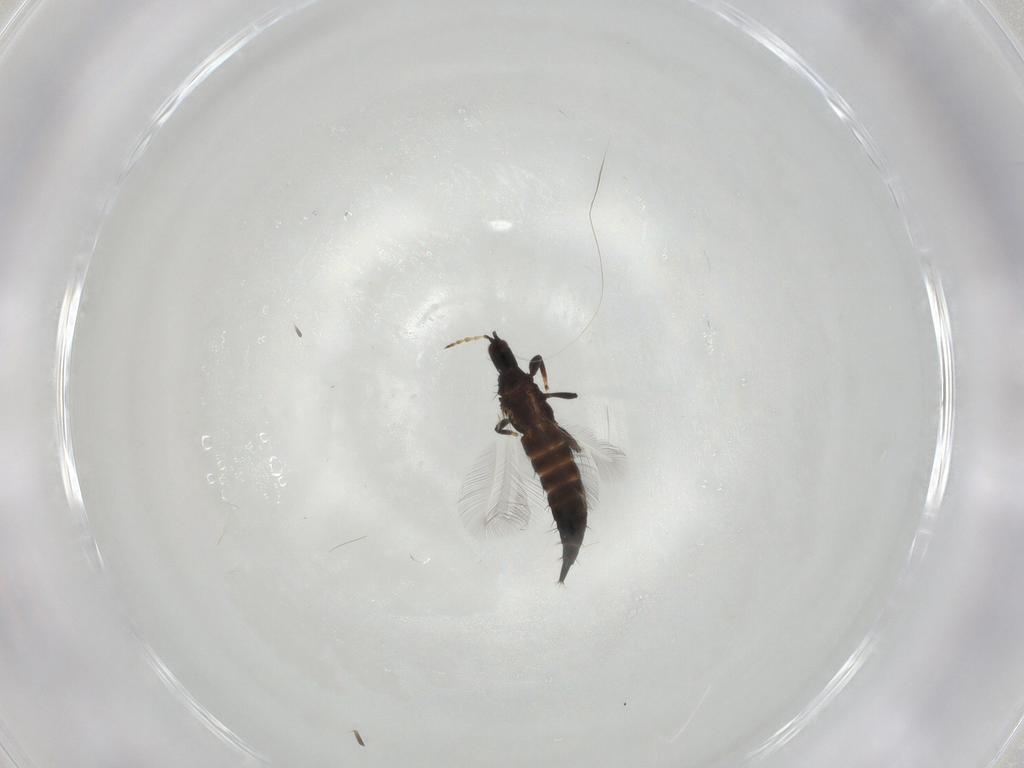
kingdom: Animalia
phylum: Arthropoda
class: Insecta
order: Thysanoptera
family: Phlaeothripidae
